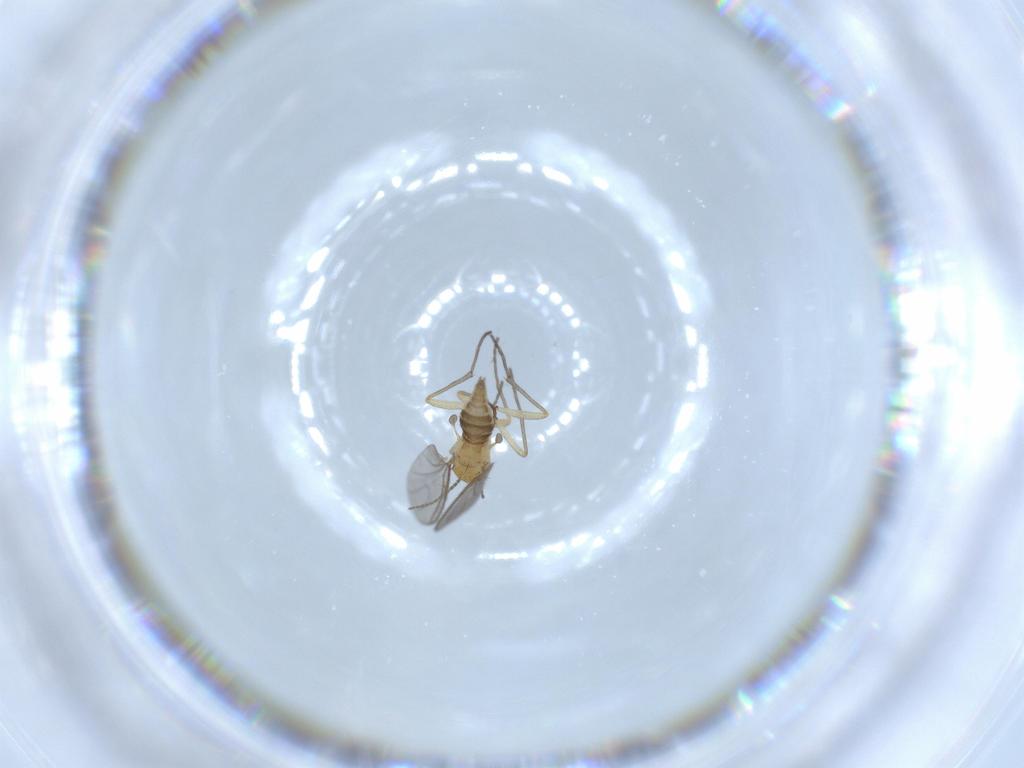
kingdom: Animalia
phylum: Arthropoda
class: Insecta
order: Diptera
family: Sciaridae
